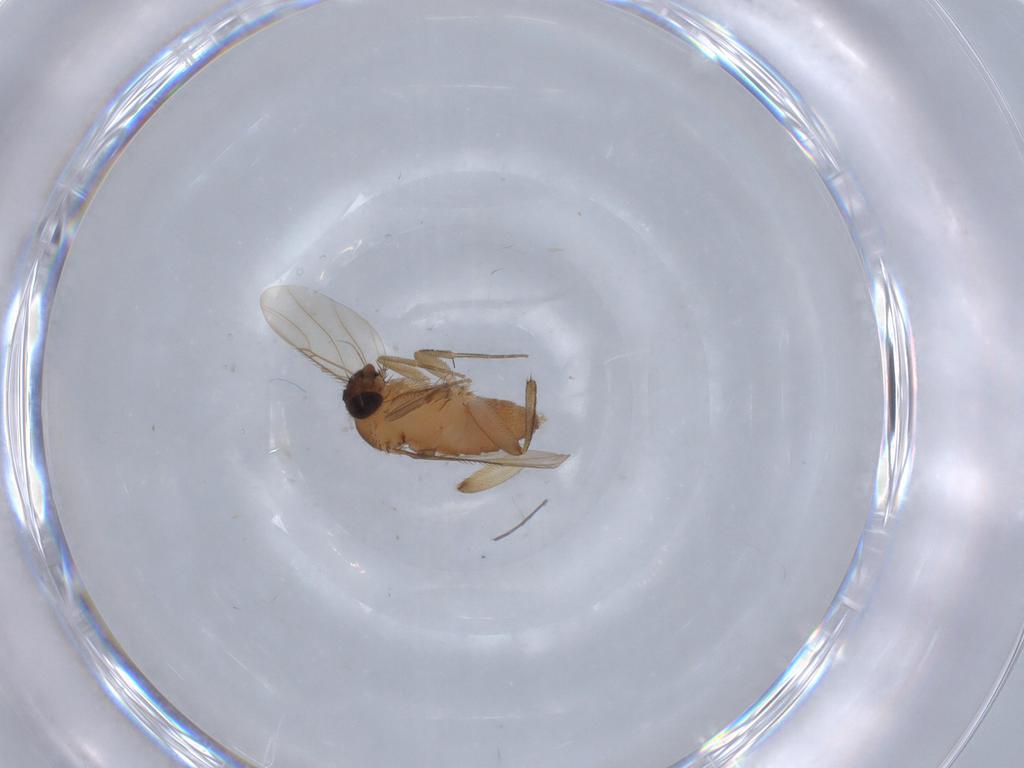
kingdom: Animalia
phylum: Arthropoda
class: Insecta
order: Diptera
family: Phoridae
